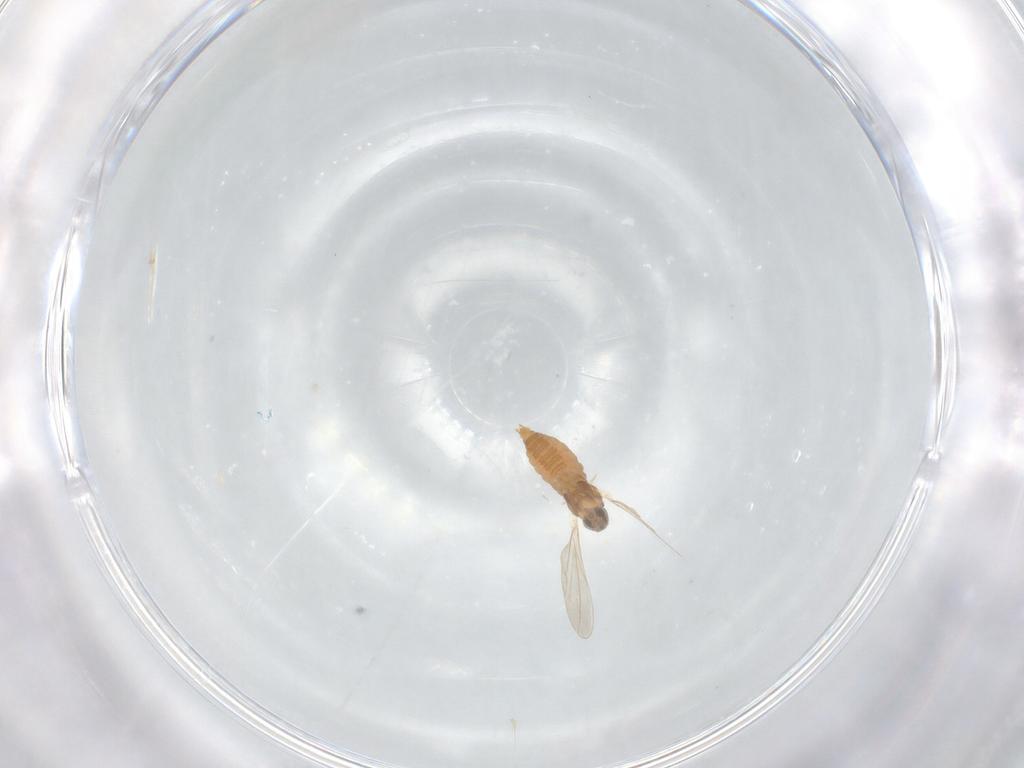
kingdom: Animalia
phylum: Arthropoda
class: Insecta
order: Diptera
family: Cecidomyiidae
